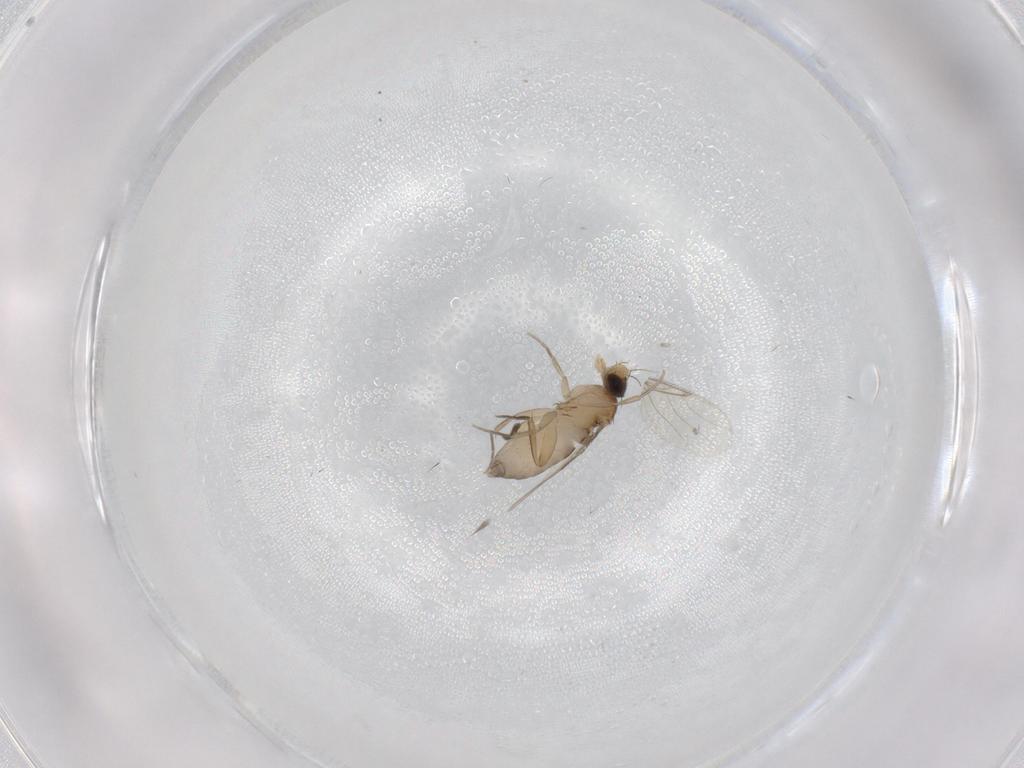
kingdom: Animalia
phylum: Arthropoda
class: Insecta
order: Diptera
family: Phoridae
